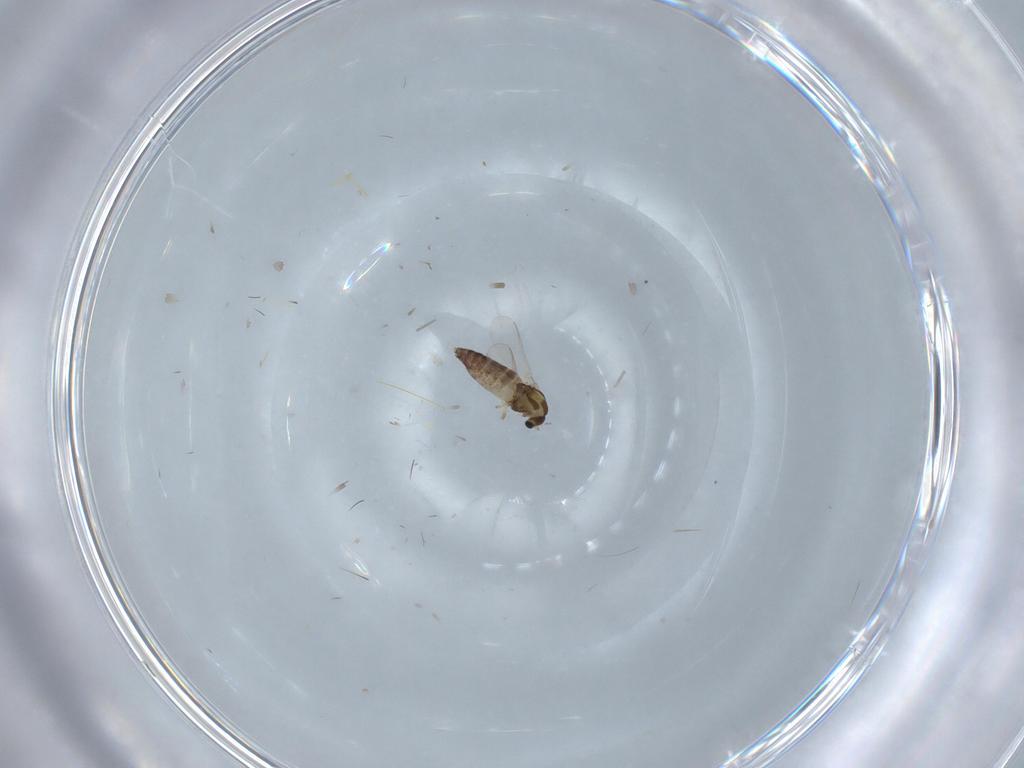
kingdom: Animalia
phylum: Arthropoda
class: Insecta
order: Diptera
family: Chironomidae
